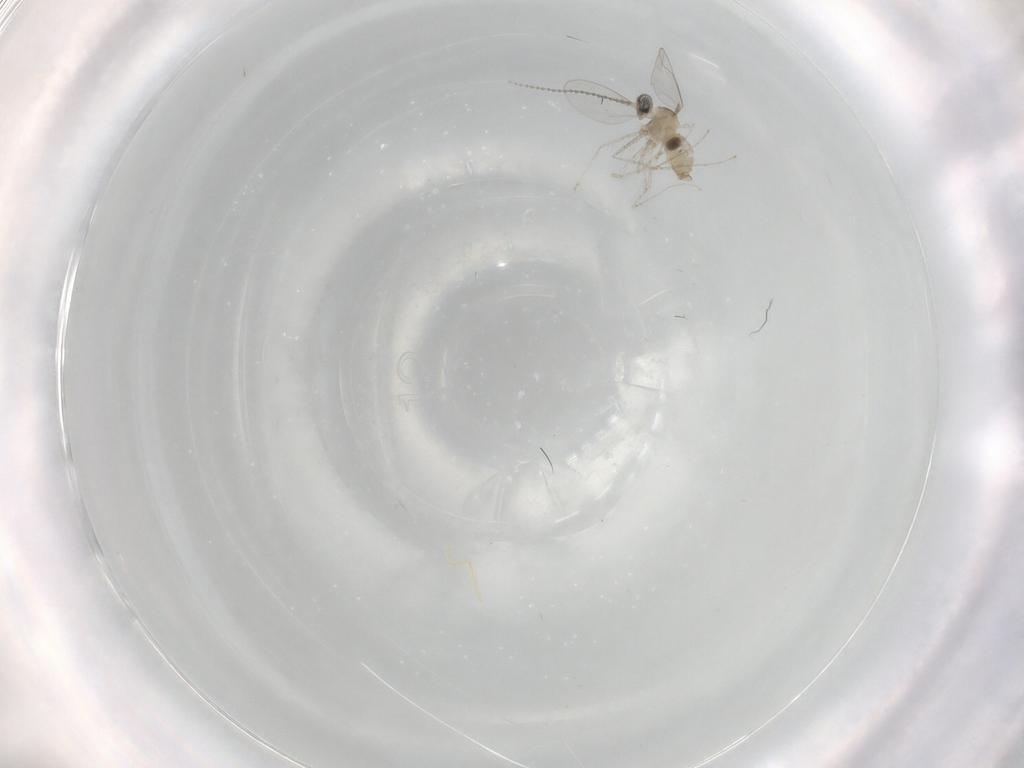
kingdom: Animalia
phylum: Arthropoda
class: Insecta
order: Diptera
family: Cecidomyiidae
